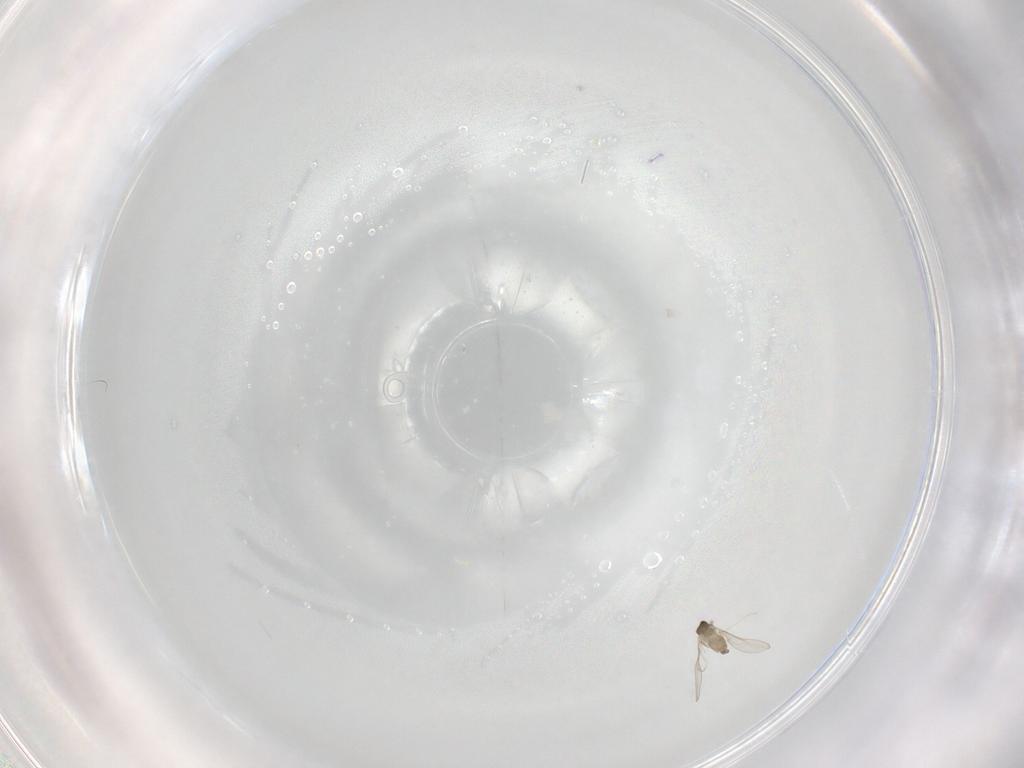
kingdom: Animalia
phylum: Arthropoda
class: Insecta
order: Diptera
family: Cecidomyiidae
